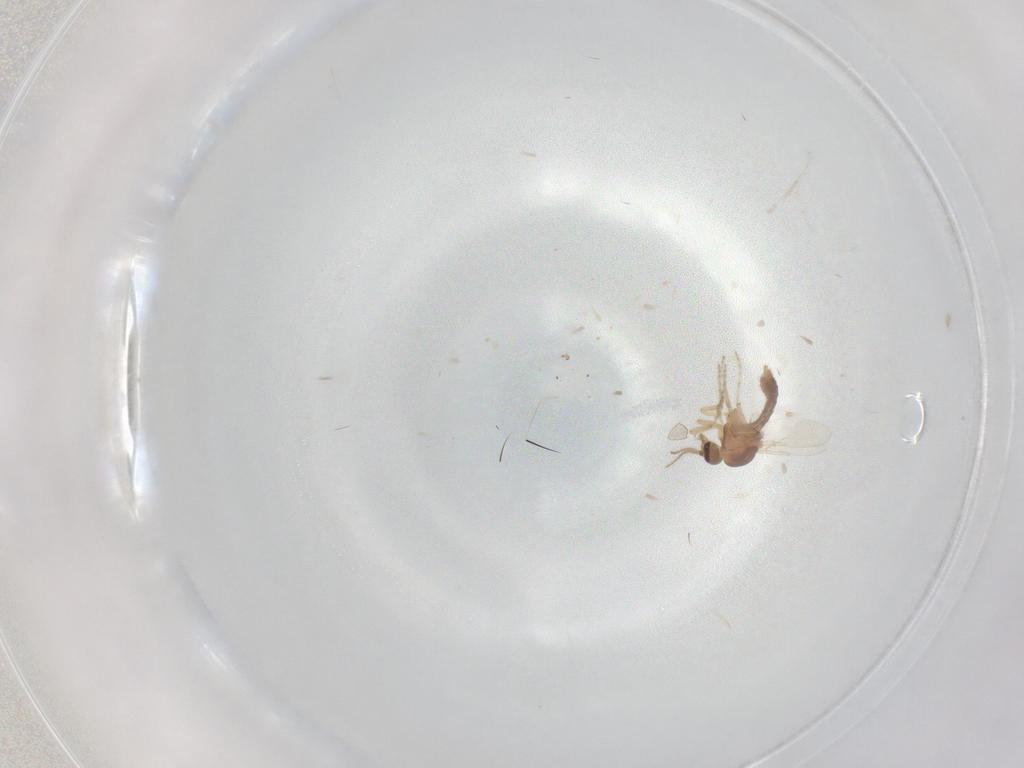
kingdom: Animalia
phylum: Arthropoda
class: Insecta
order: Diptera
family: Ceratopogonidae
